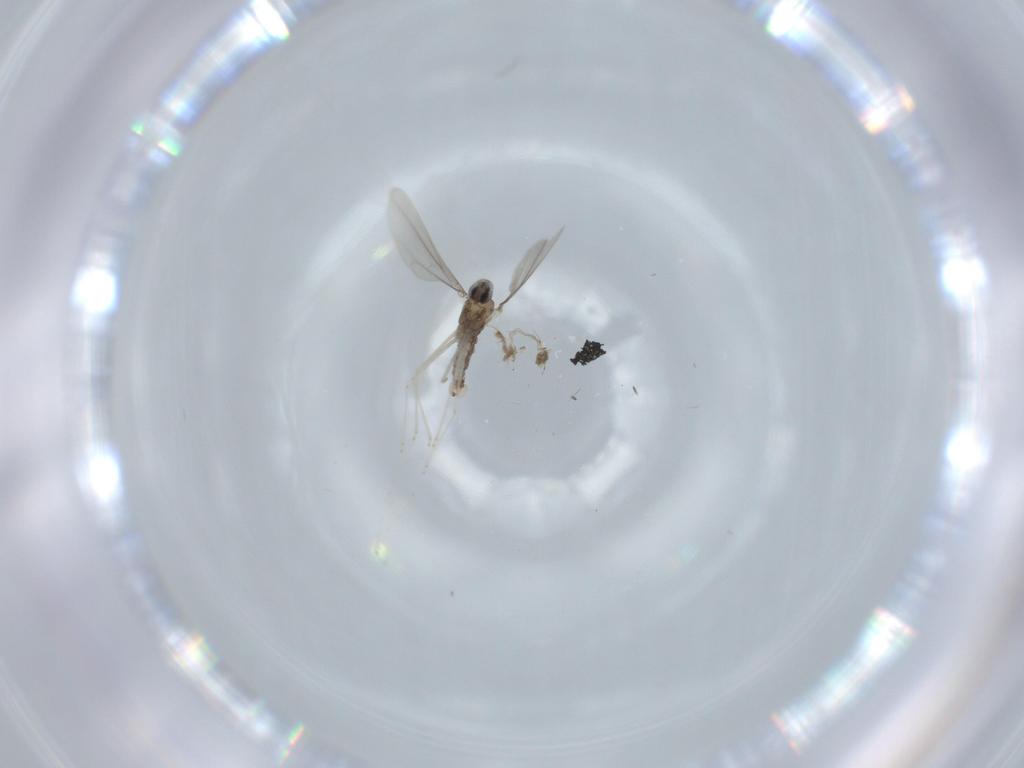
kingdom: Animalia
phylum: Arthropoda
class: Insecta
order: Diptera
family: Cecidomyiidae
